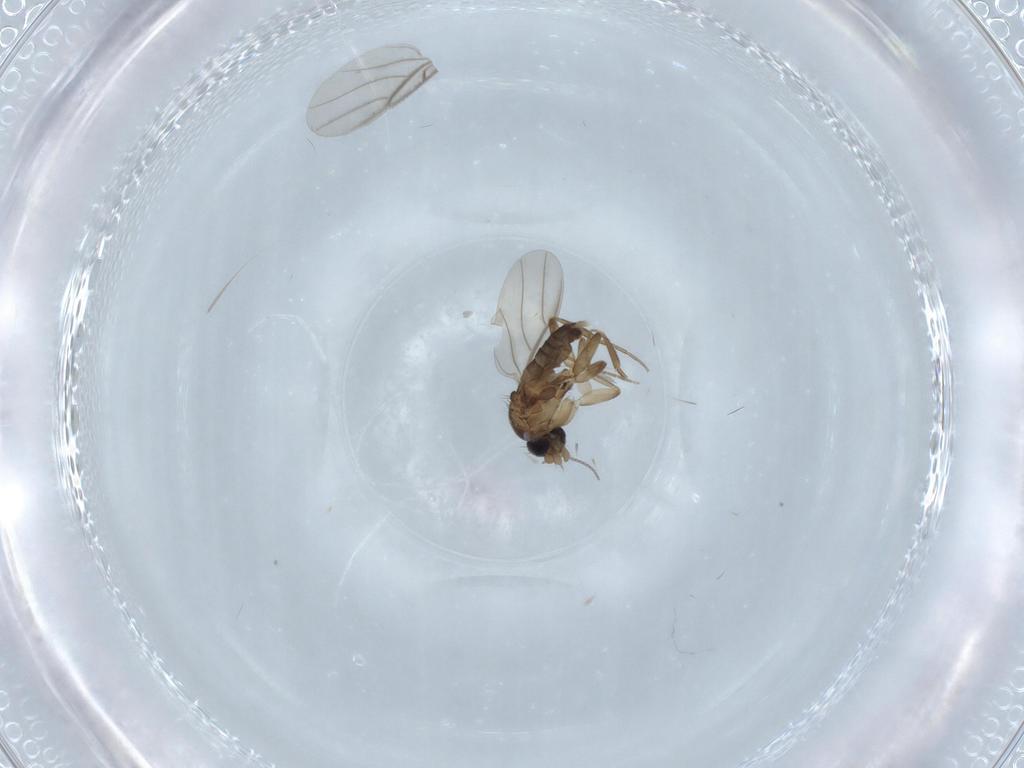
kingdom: Animalia
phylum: Arthropoda
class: Insecta
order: Diptera
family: Phoridae
